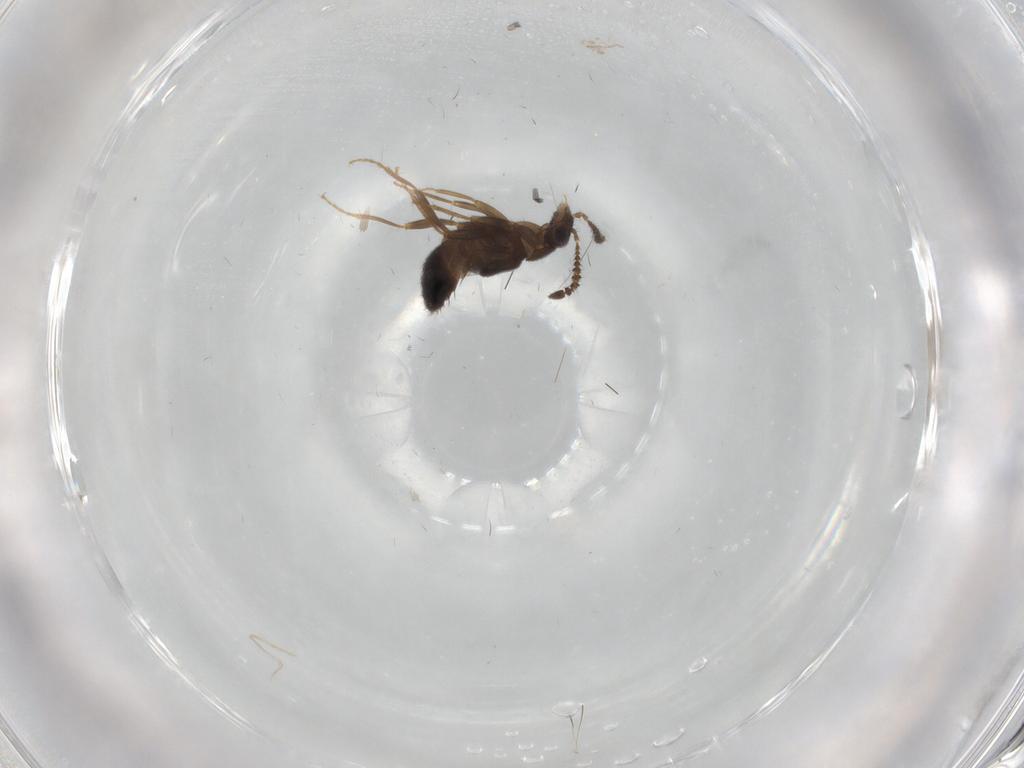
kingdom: Animalia
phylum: Arthropoda
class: Insecta
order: Coleoptera
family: Staphylinidae
